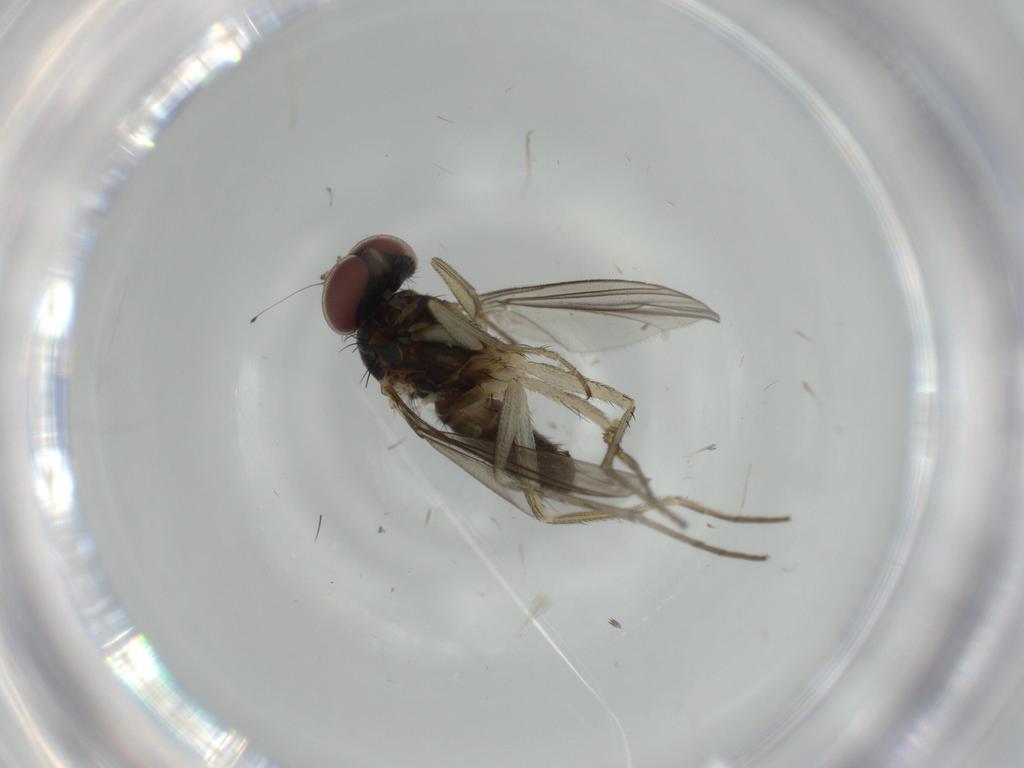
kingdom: Animalia
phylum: Arthropoda
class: Insecta
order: Diptera
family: Dolichopodidae
